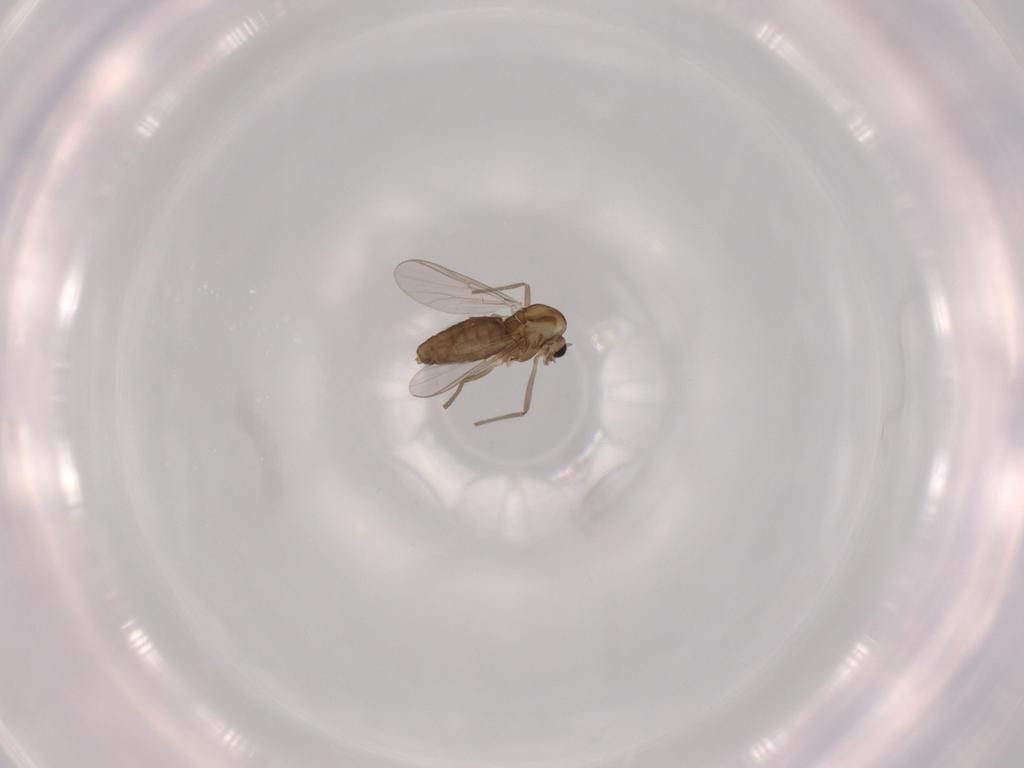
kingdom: Animalia
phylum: Arthropoda
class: Insecta
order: Diptera
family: Chironomidae
